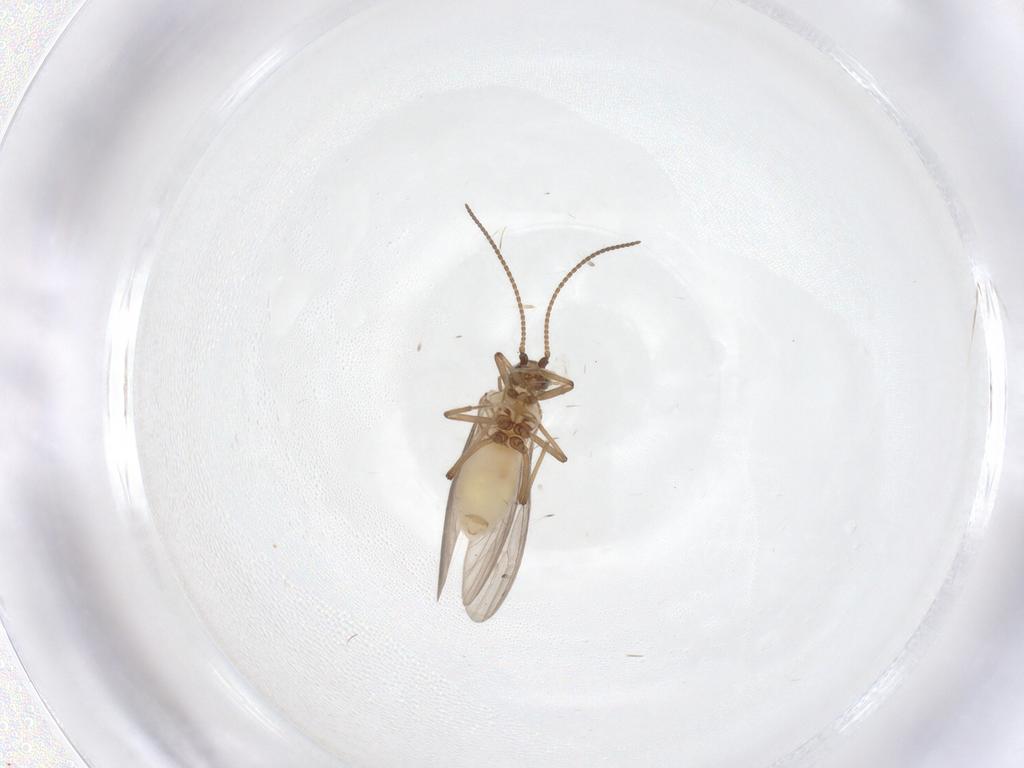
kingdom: Animalia
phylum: Arthropoda
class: Insecta
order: Neuroptera
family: Coniopterygidae
